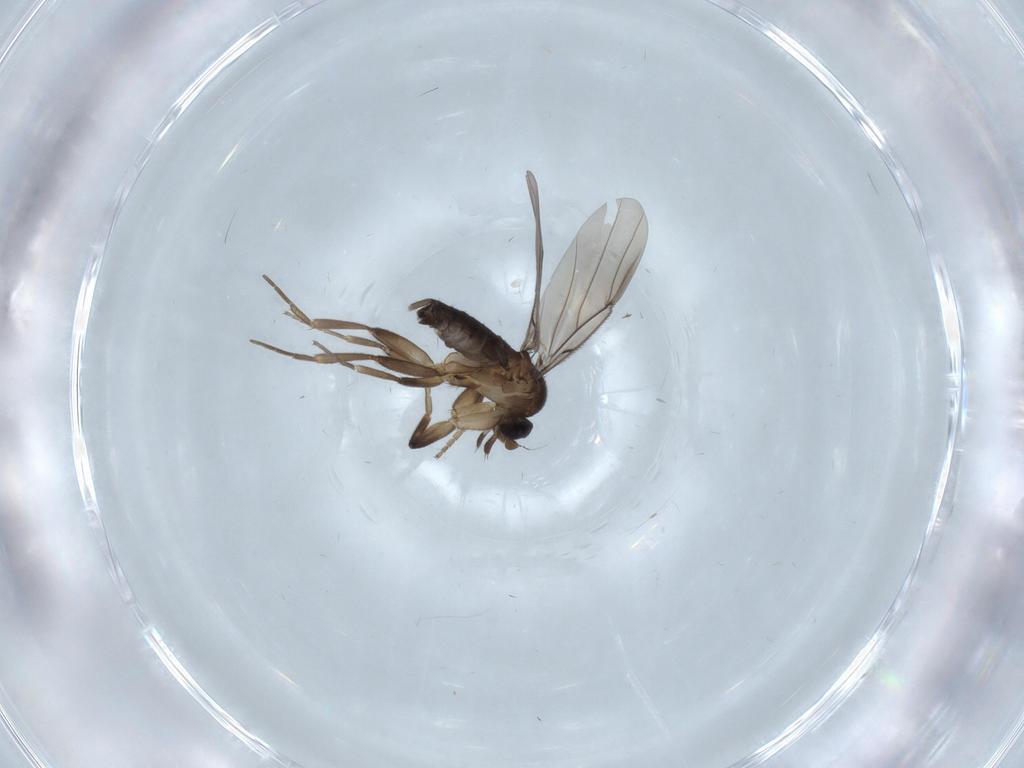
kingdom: Animalia
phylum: Arthropoda
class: Insecta
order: Diptera
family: Phoridae
